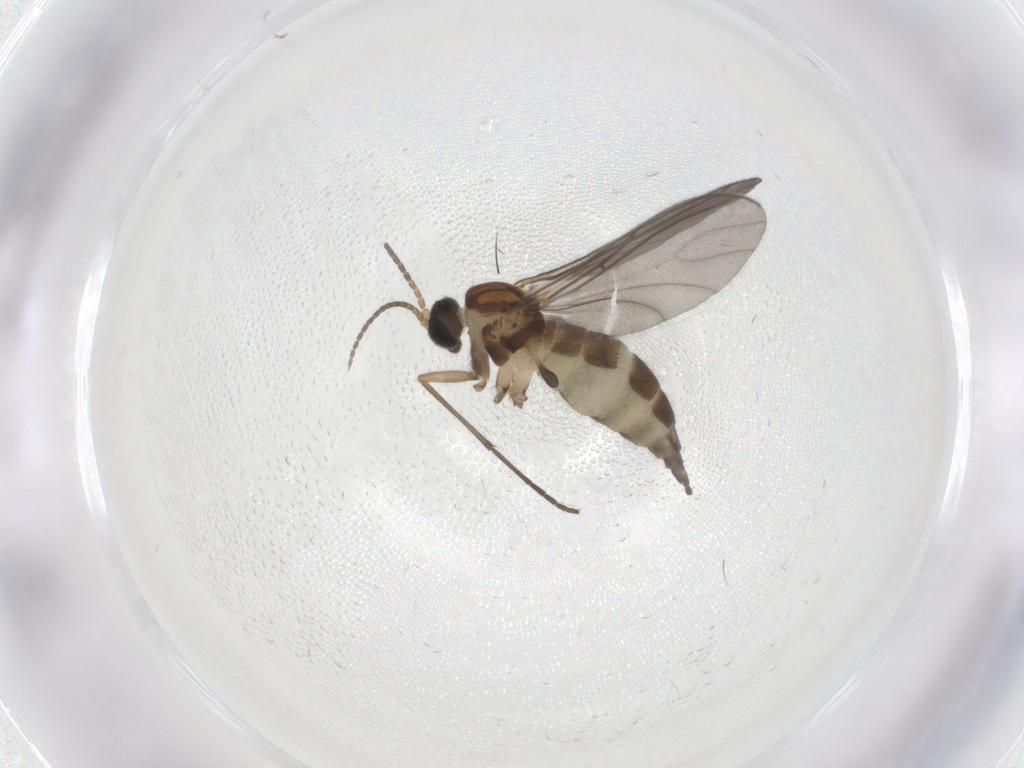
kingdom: Animalia
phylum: Arthropoda
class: Insecta
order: Diptera
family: Sciaridae
